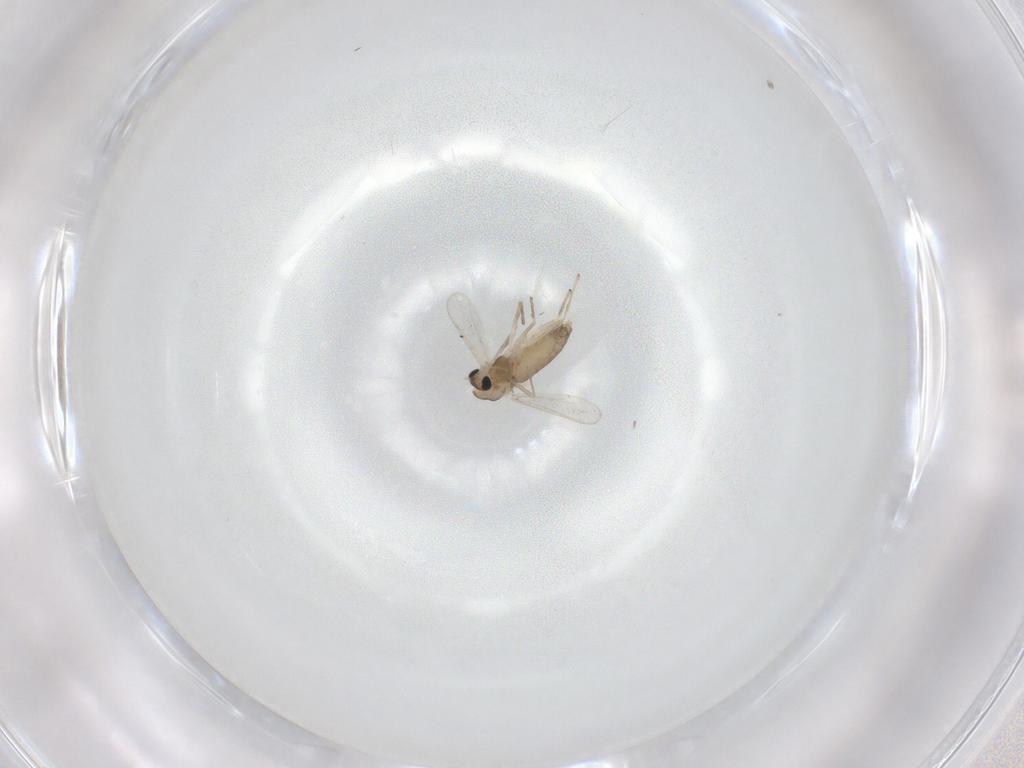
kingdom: Animalia
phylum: Arthropoda
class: Insecta
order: Diptera
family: Chironomidae
